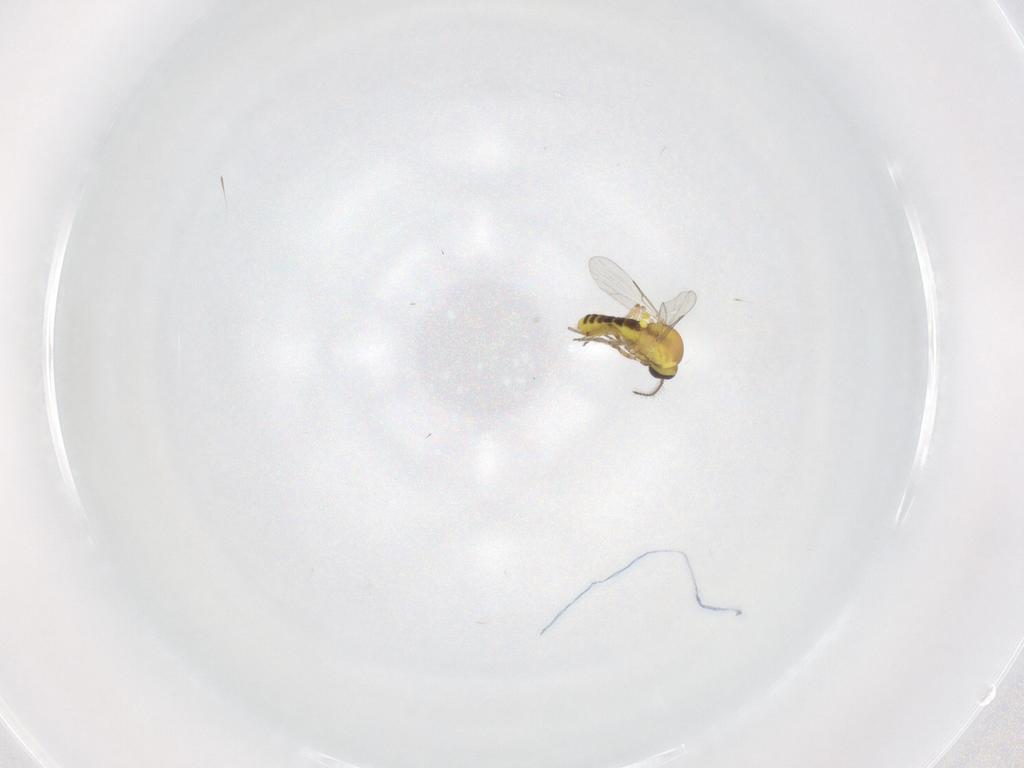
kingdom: Animalia
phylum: Arthropoda
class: Insecta
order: Diptera
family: Ceratopogonidae
